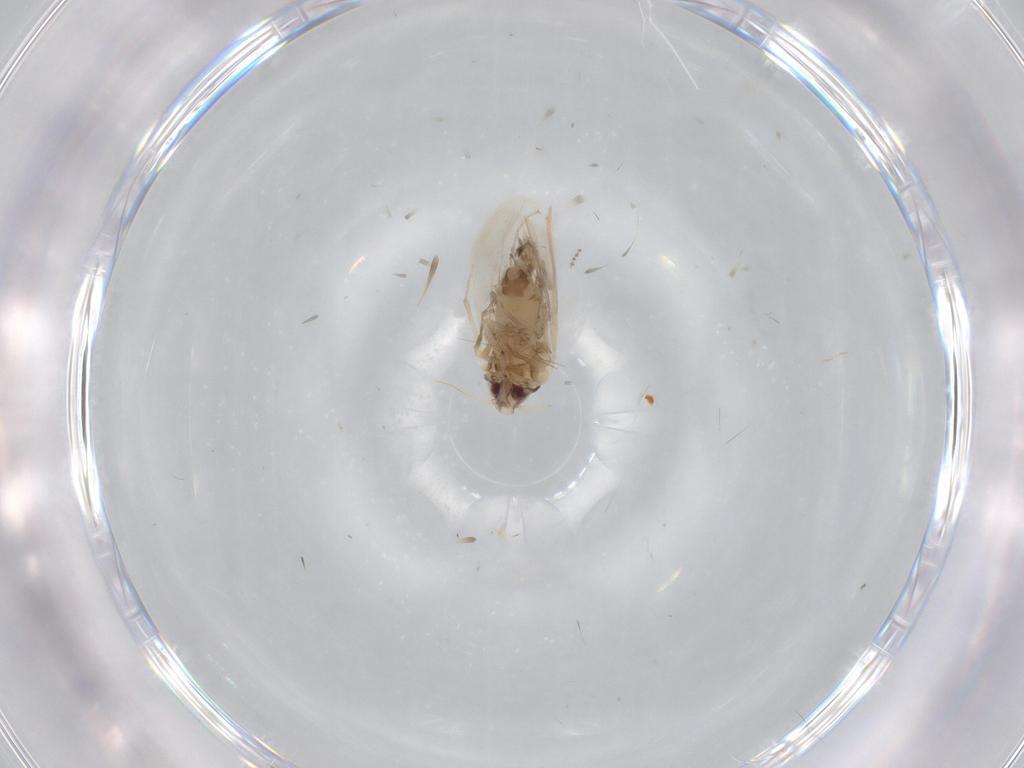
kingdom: Animalia
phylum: Arthropoda
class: Insecta
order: Hemiptera
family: Aleyrodidae
